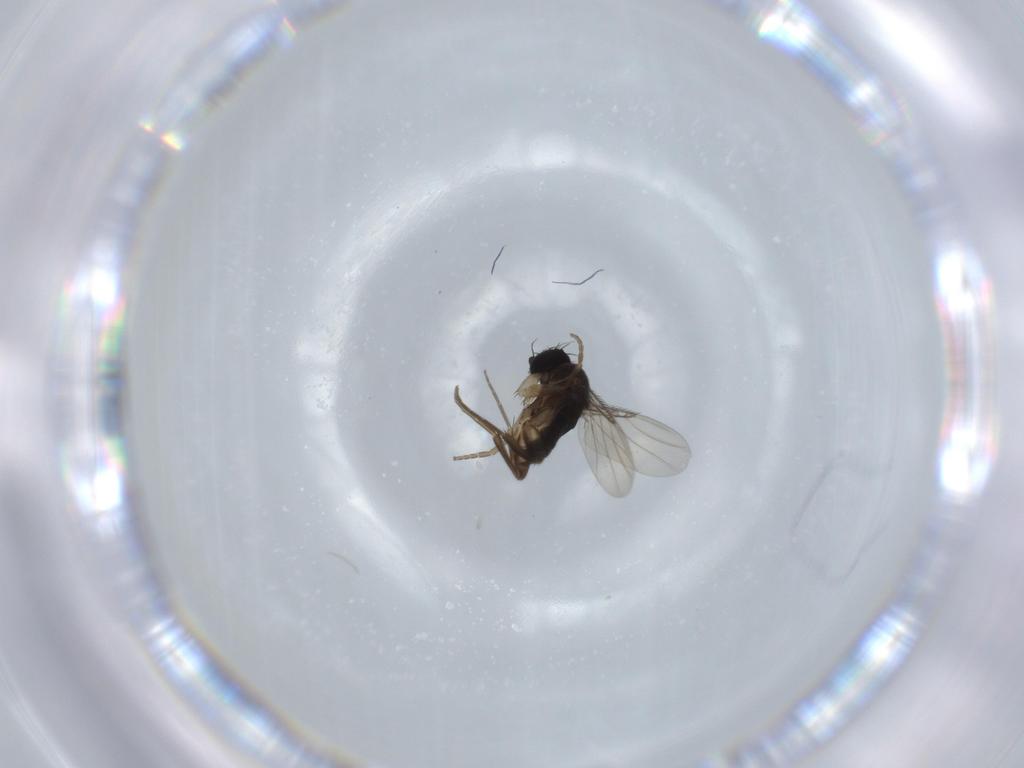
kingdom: Animalia
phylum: Arthropoda
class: Insecta
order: Diptera
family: Phoridae
